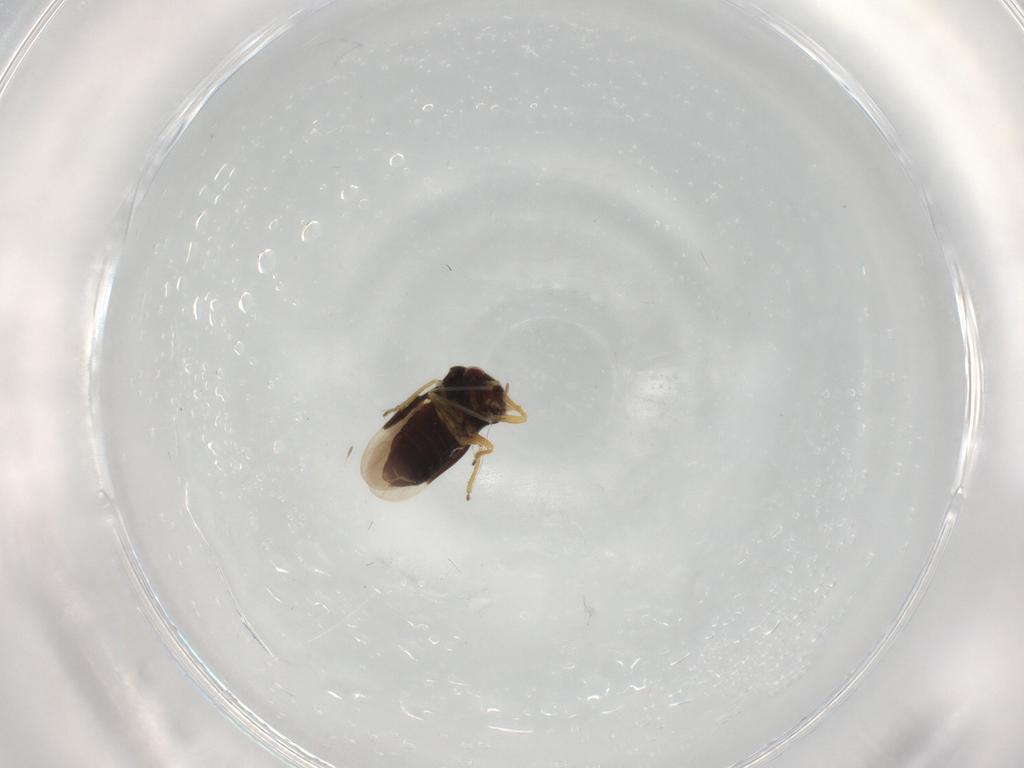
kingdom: Animalia
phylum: Arthropoda
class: Insecta
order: Hemiptera
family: Schizopteridae
